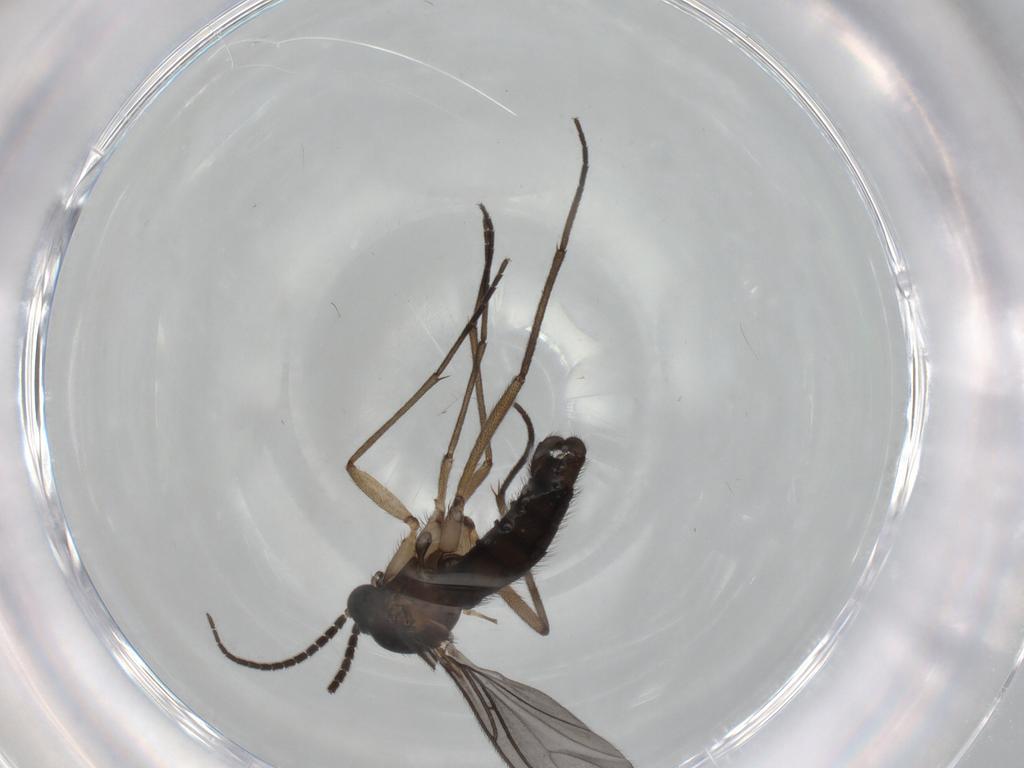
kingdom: Animalia
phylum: Arthropoda
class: Insecta
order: Diptera
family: Sciaridae
